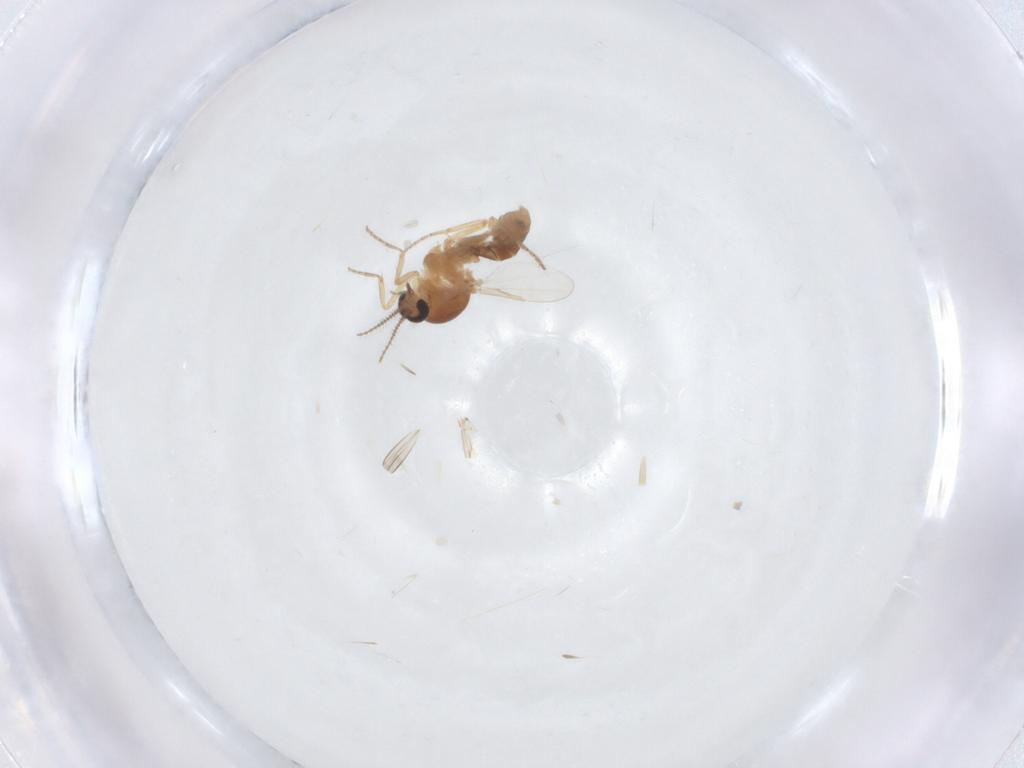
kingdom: Animalia
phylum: Arthropoda
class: Insecta
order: Diptera
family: Ceratopogonidae
